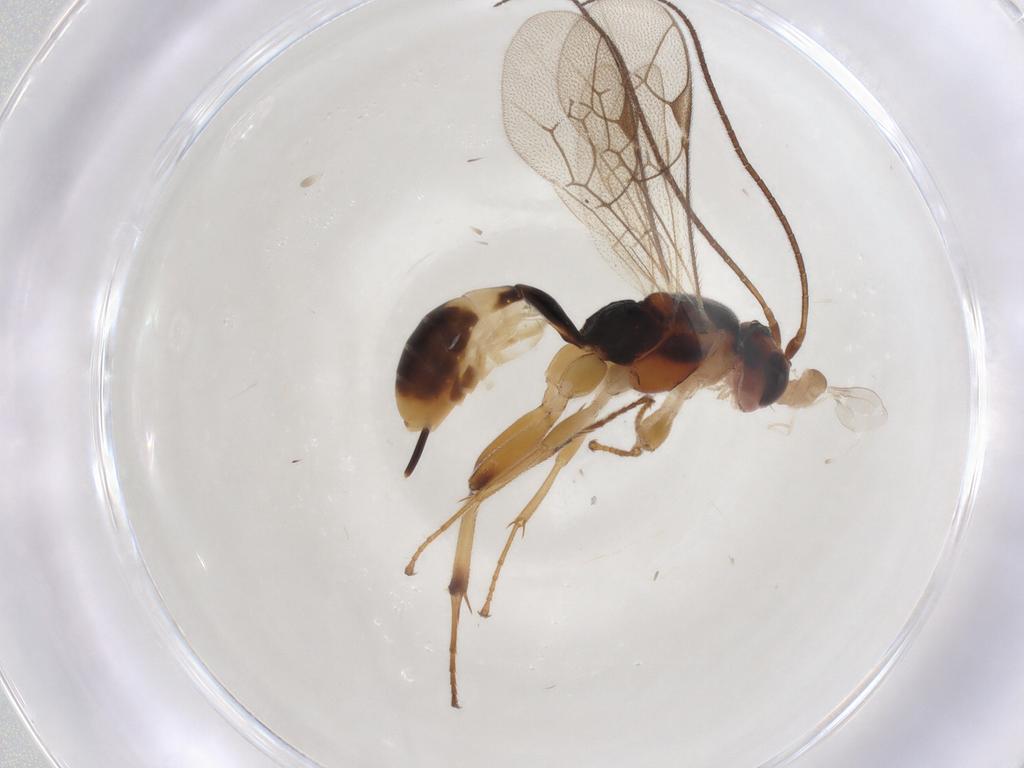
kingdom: Animalia
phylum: Arthropoda
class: Insecta
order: Hymenoptera
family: Ichneumonidae
